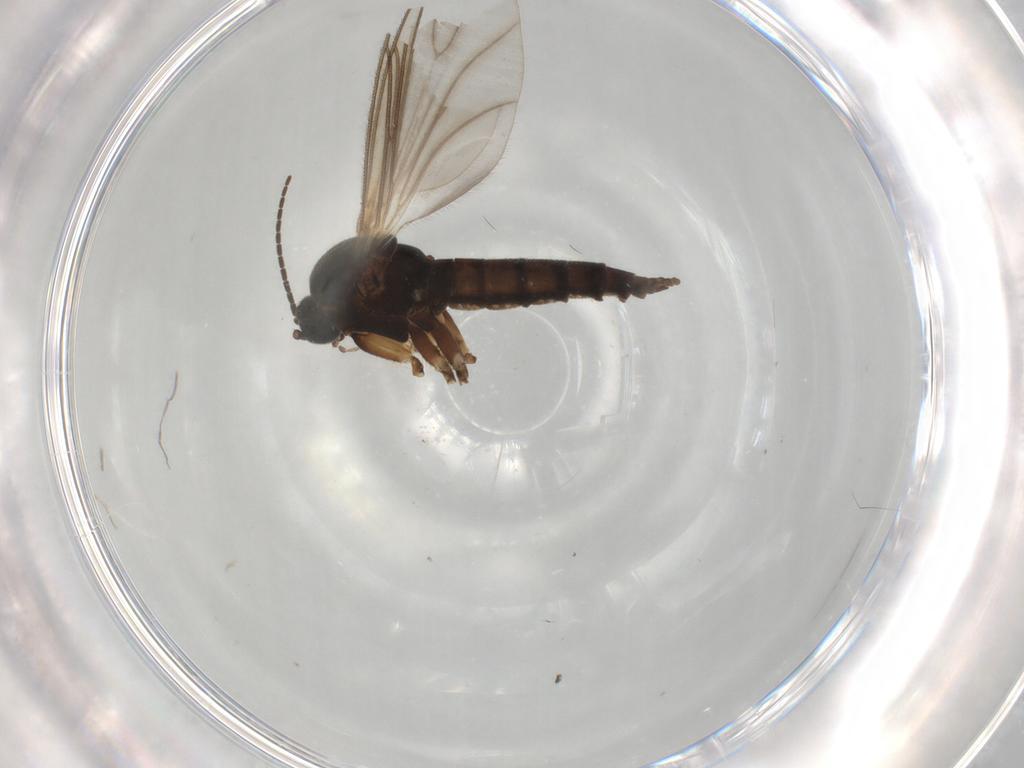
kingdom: Animalia
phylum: Arthropoda
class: Insecta
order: Diptera
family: Sciaridae
